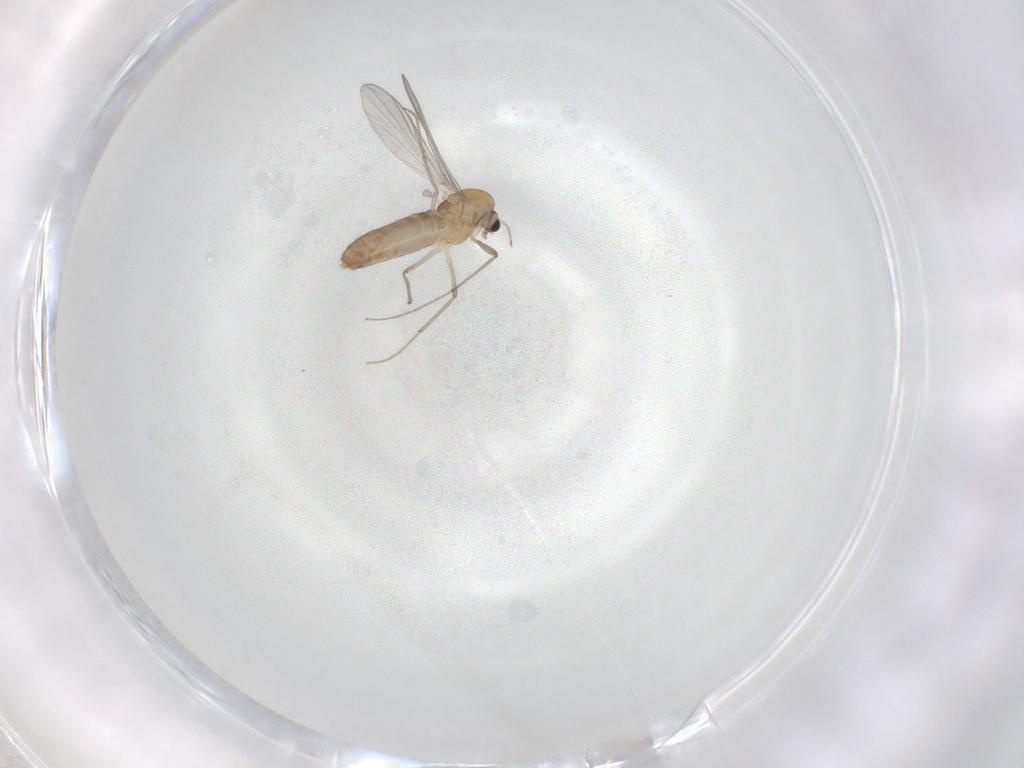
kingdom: Animalia
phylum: Arthropoda
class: Insecta
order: Diptera
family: Chironomidae
